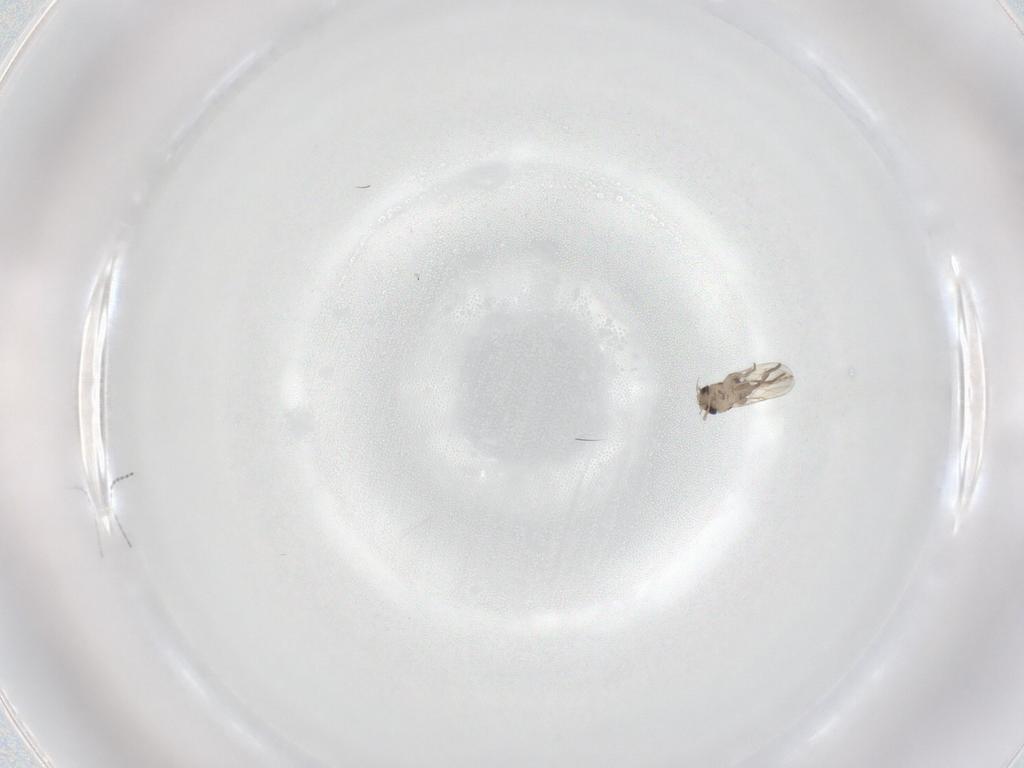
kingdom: Animalia
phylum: Arthropoda
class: Insecta
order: Diptera
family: Phoridae
